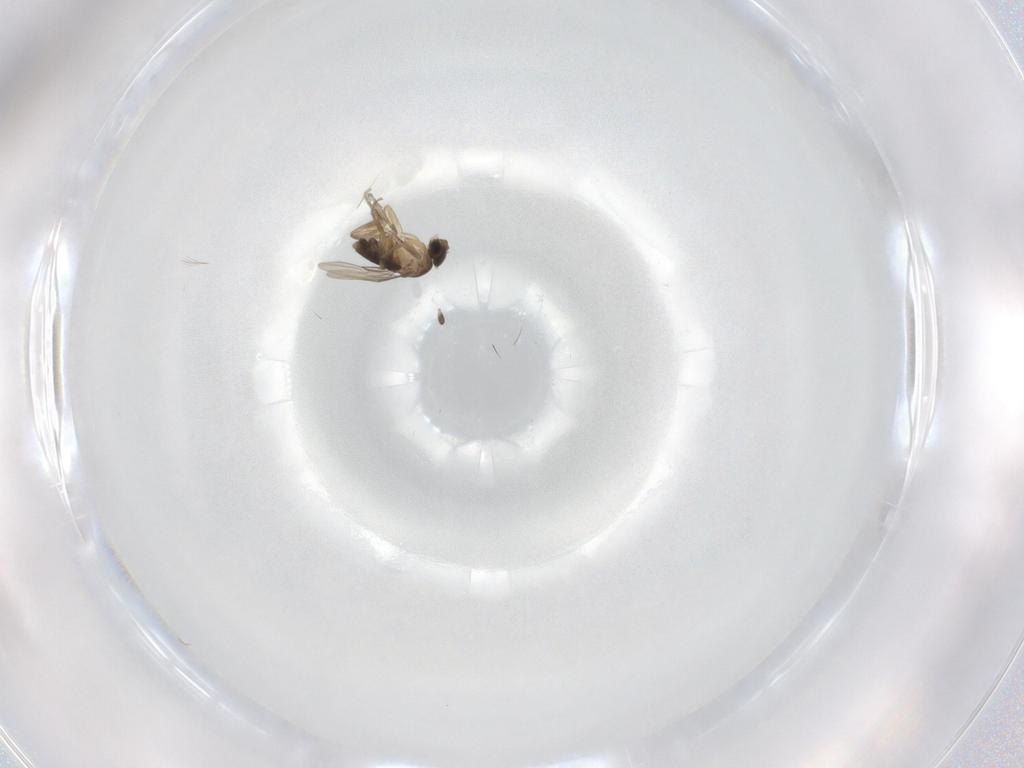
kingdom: Animalia
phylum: Arthropoda
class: Insecta
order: Diptera
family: Phoridae
